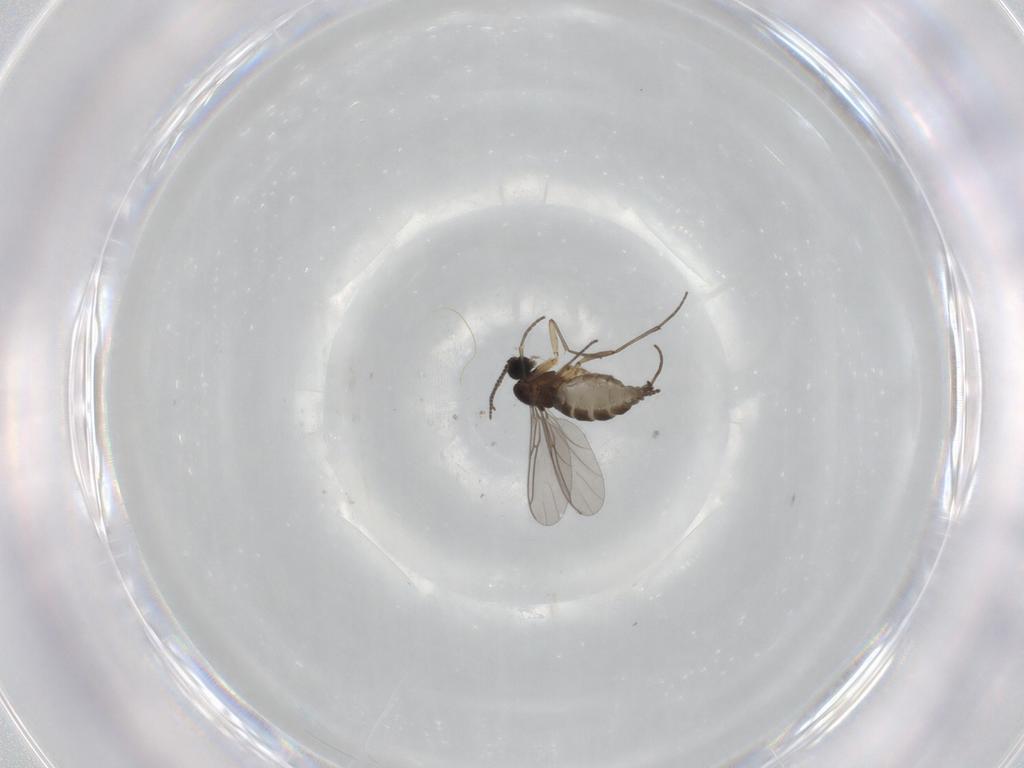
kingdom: Animalia
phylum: Arthropoda
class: Insecta
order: Diptera
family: Sciaridae
